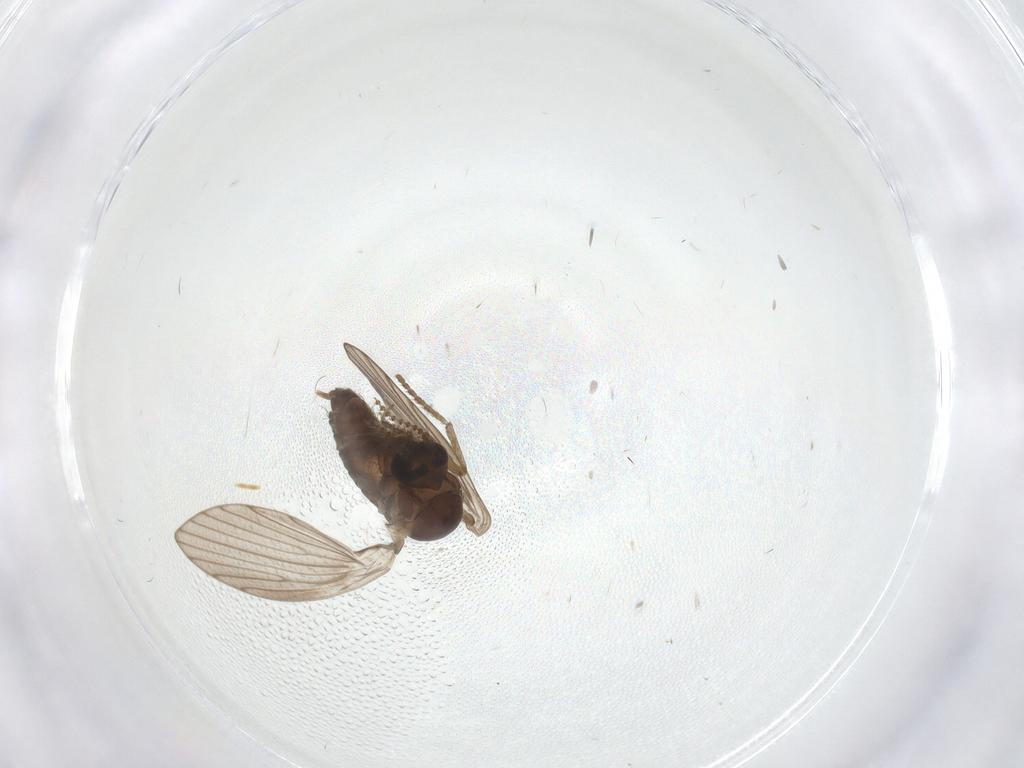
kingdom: Animalia
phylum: Arthropoda
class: Insecta
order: Diptera
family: Psychodidae
